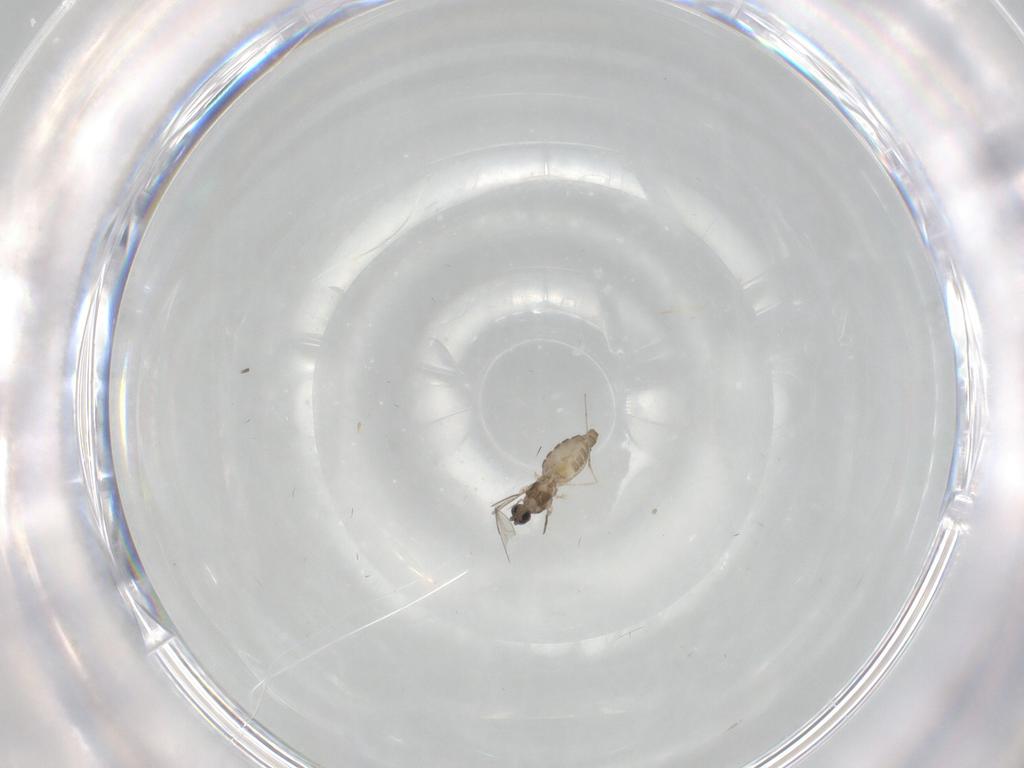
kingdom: Animalia
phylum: Arthropoda
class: Insecta
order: Diptera
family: Cecidomyiidae
